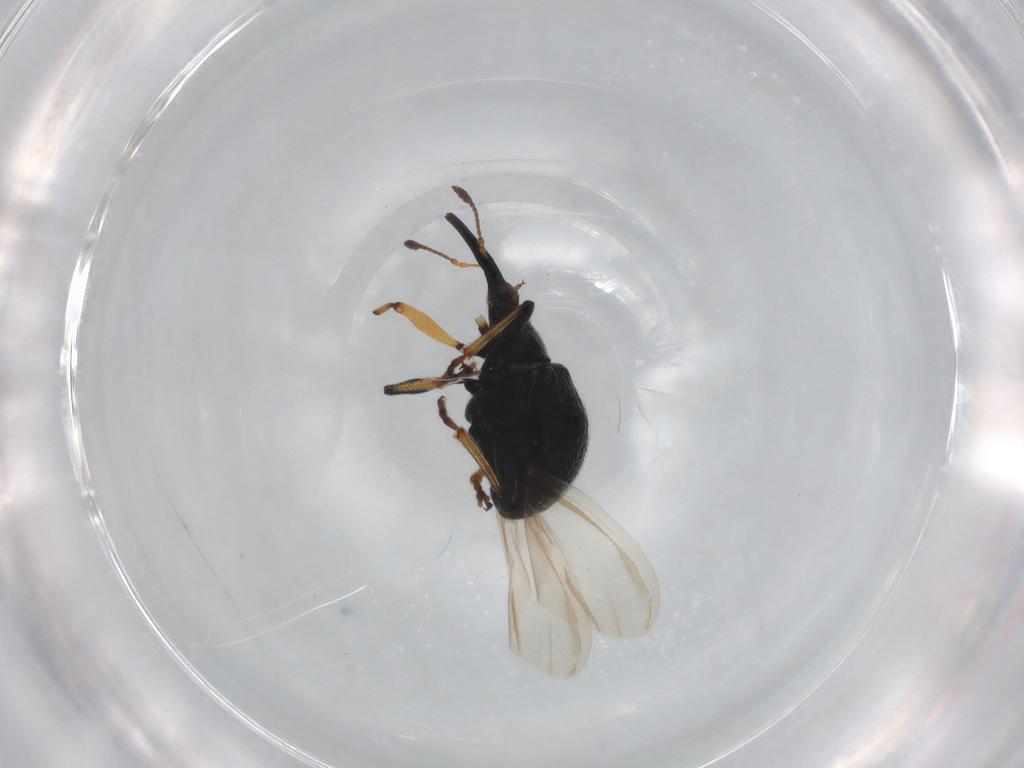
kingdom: Animalia
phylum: Arthropoda
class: Insecta
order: Coleoptera
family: Brentidae
